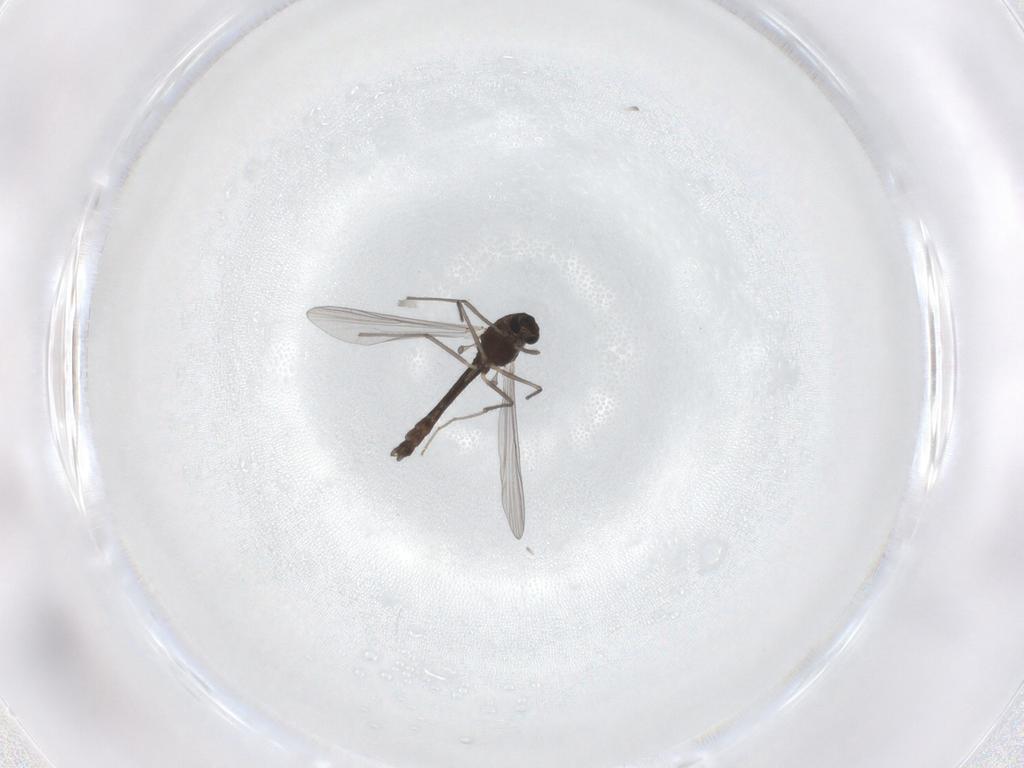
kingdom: Animalia
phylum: Arthropoda
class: Insecta
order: Diptera
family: Chironomidae
